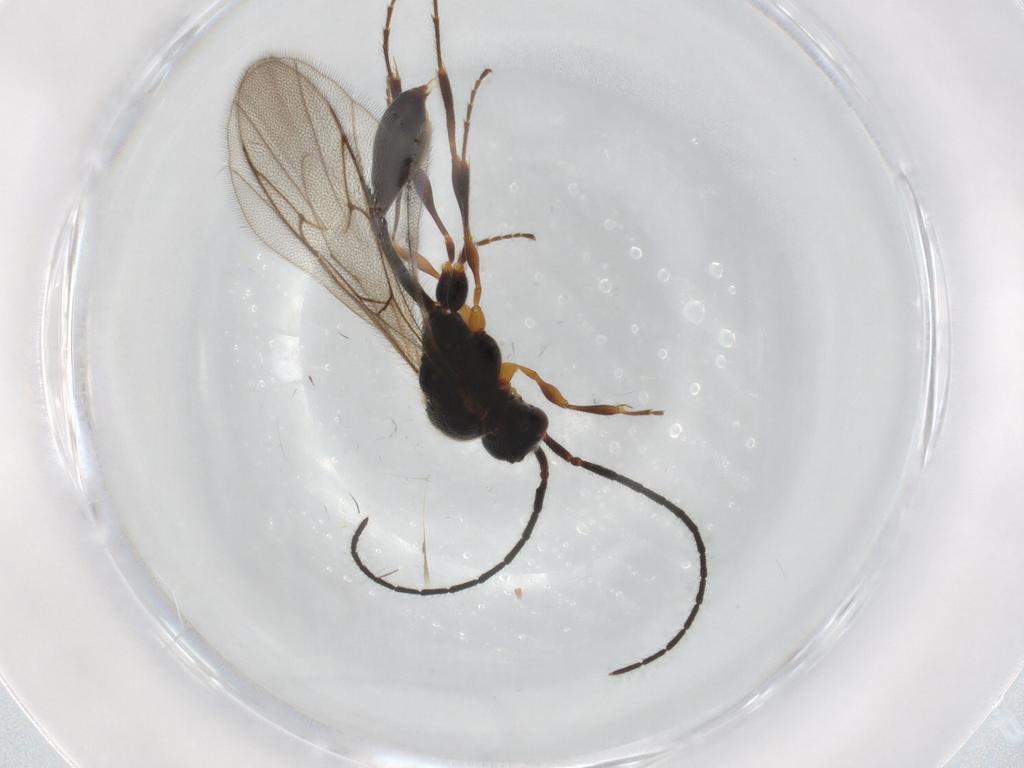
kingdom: Animalia
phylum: Arthropoda
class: Insecta
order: Hymenoptera
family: Diapriidae
